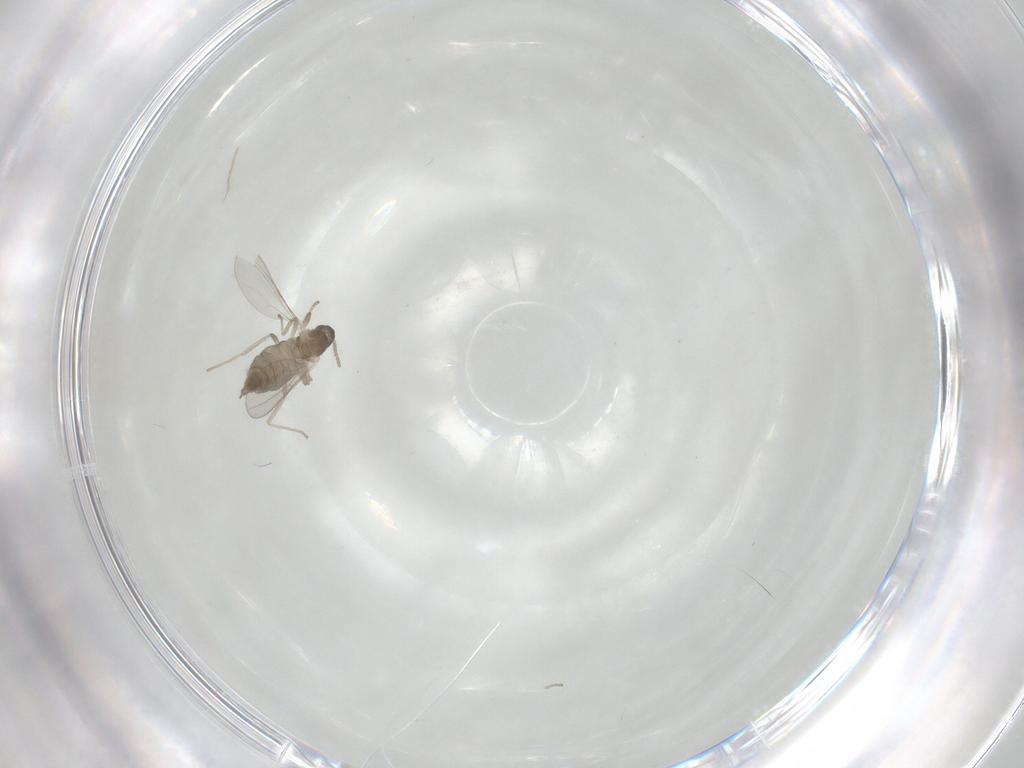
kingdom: Animalia
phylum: Arthropoda
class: Insecta
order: Diptera
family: Cecidomyiidae
